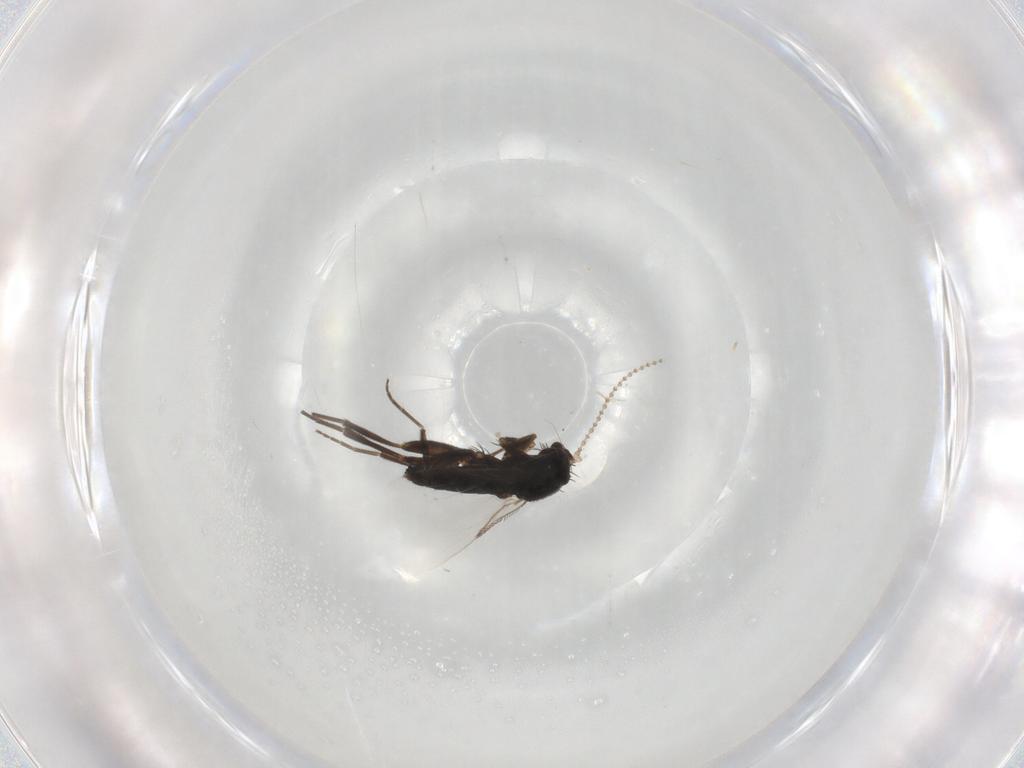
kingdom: Animalia
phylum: Arthropoda
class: Insecta
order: Diptera
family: Phoridae
